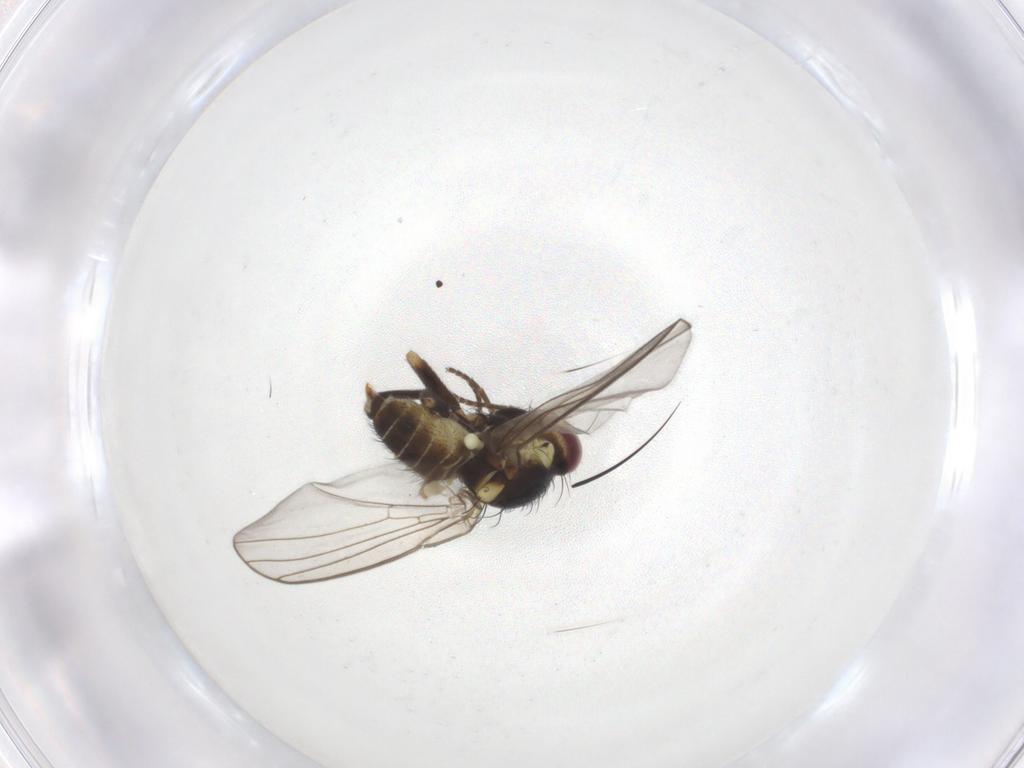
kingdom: Animalia
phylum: Arthropoda
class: Insecta
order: Diptera
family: Agromyzidae
